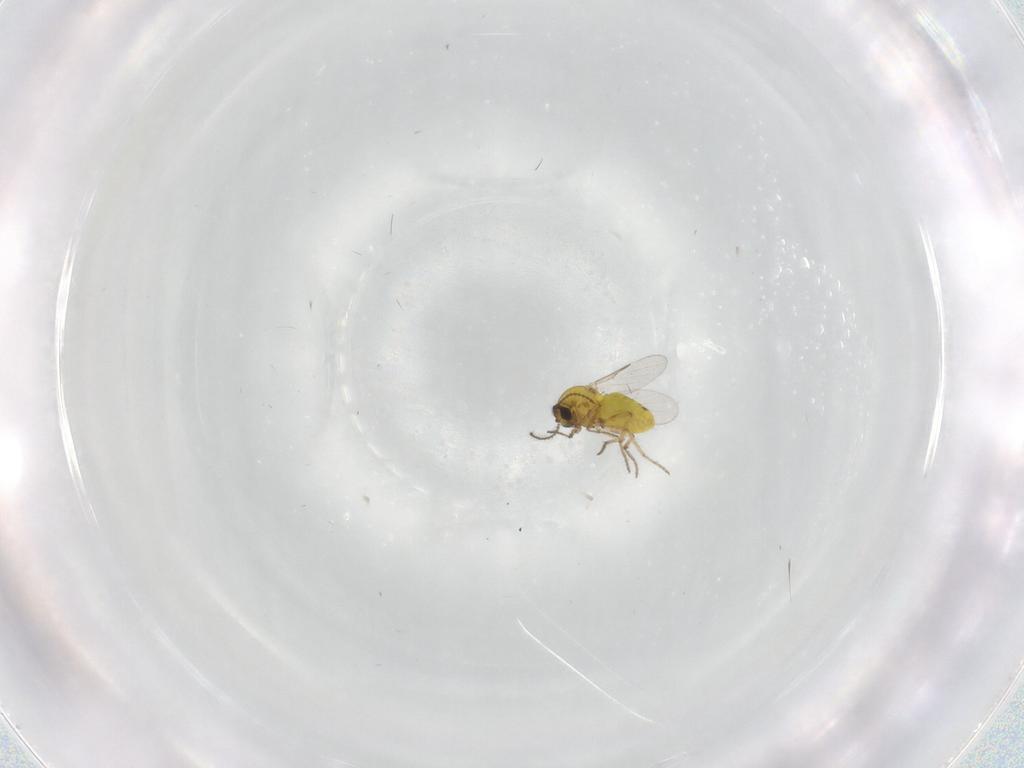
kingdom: Animalia
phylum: Arthropoda
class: Insecta
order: Diptera
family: Ceratopogonidae
